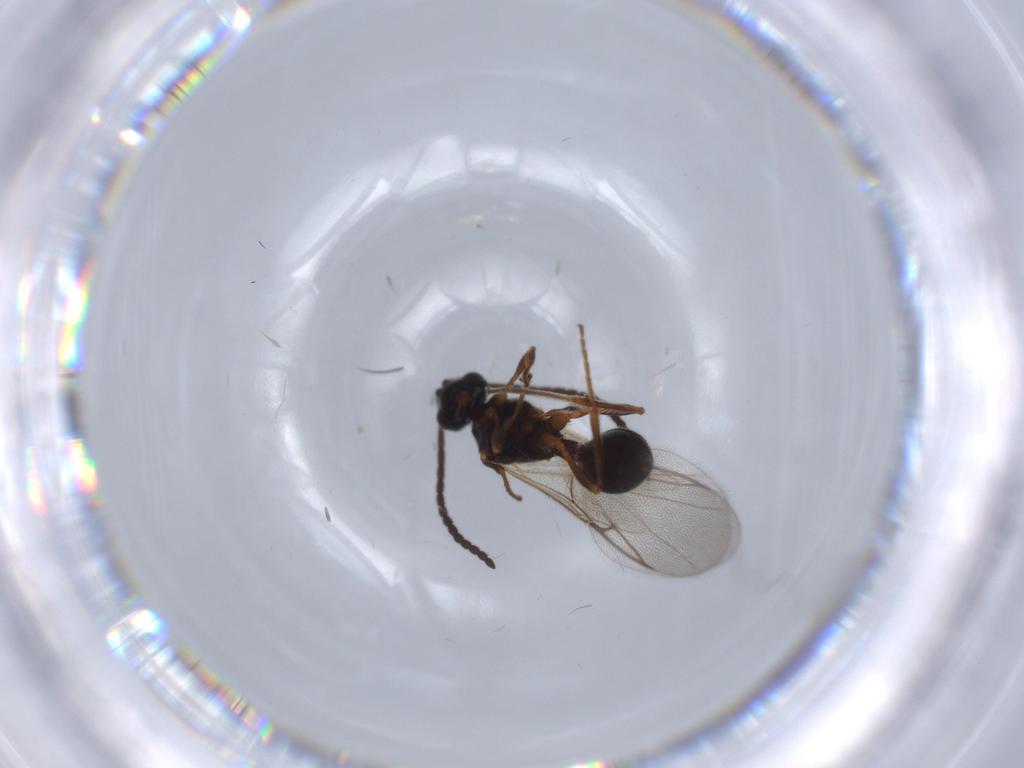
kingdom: Animalia
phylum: Arthropoda
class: Insecta
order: Hymenoptera
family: Diapriidae
